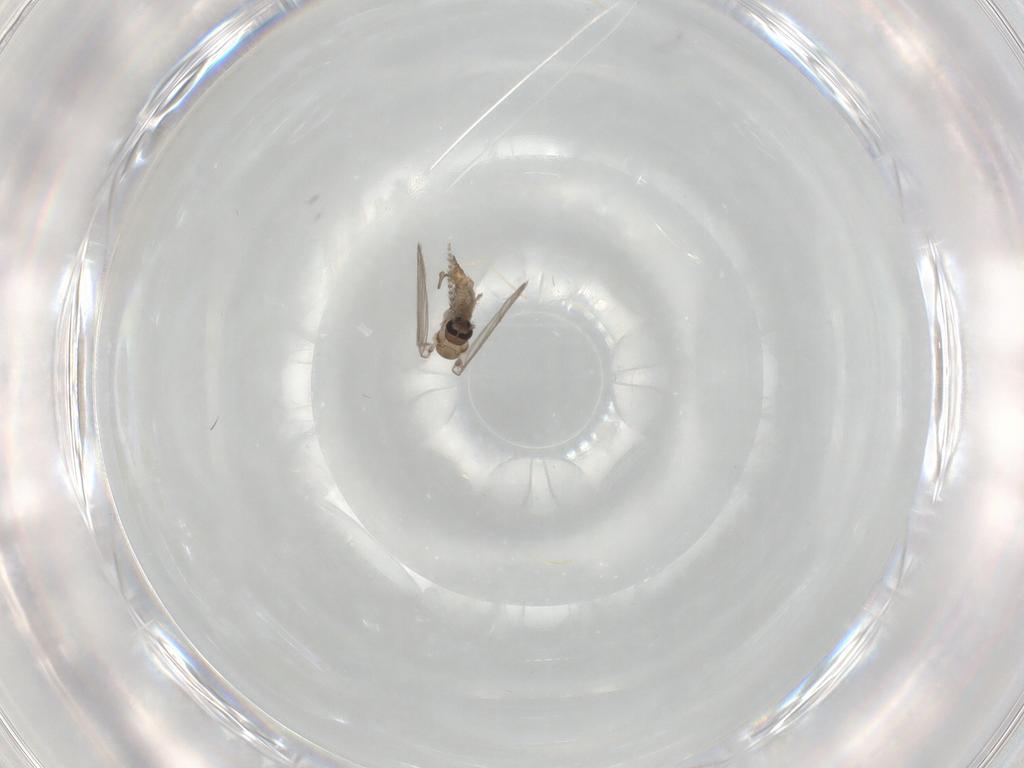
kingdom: Animalia
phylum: Arthropoda
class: Insecta
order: Diptera
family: Psychodidae
